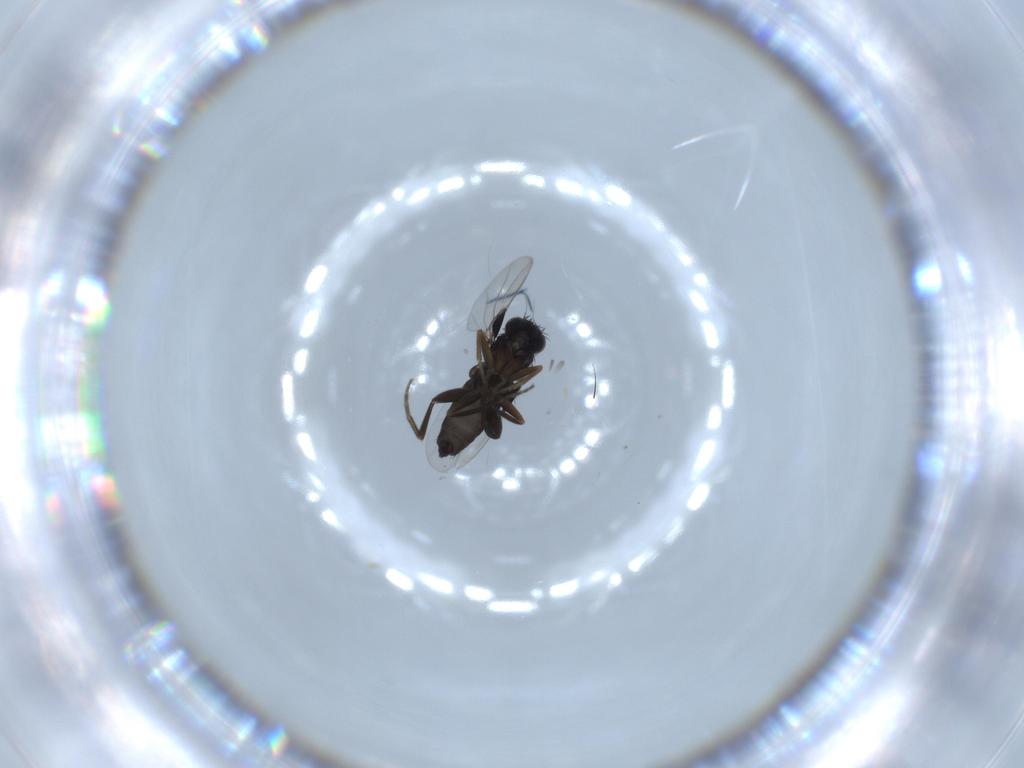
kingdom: Animalia
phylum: Arthropoda
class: Insecta
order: Diptera
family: Phoridae
